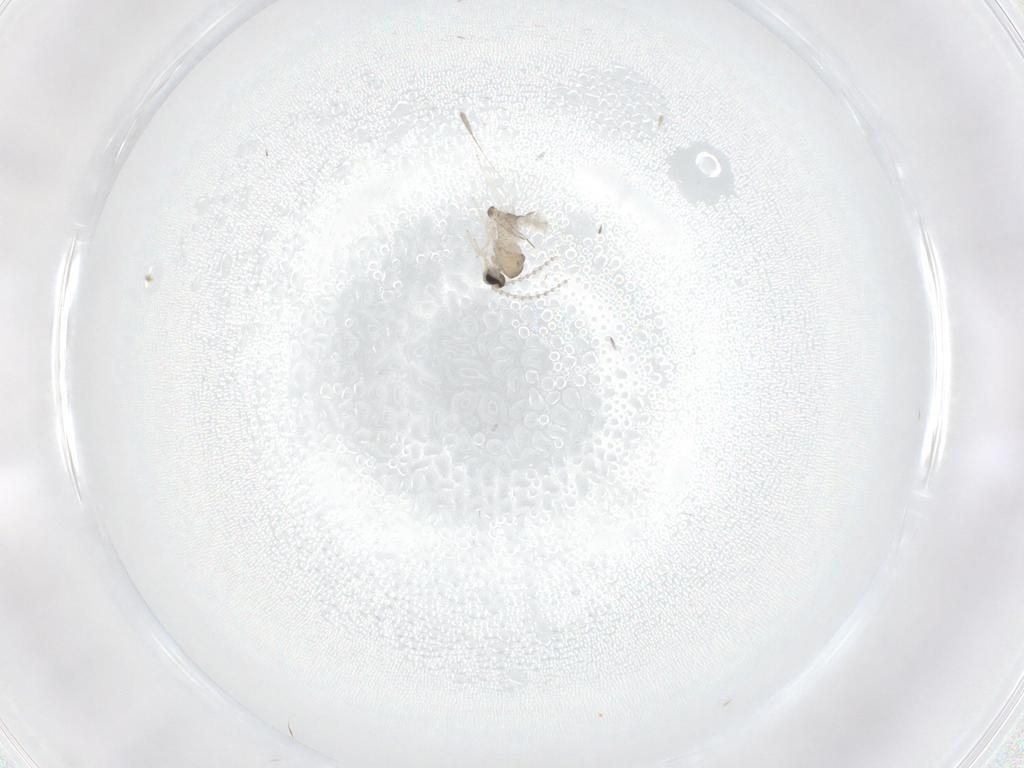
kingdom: Animalia
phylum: Arthropoda
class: Insecta
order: Diptera
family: Cecidomyiidae
